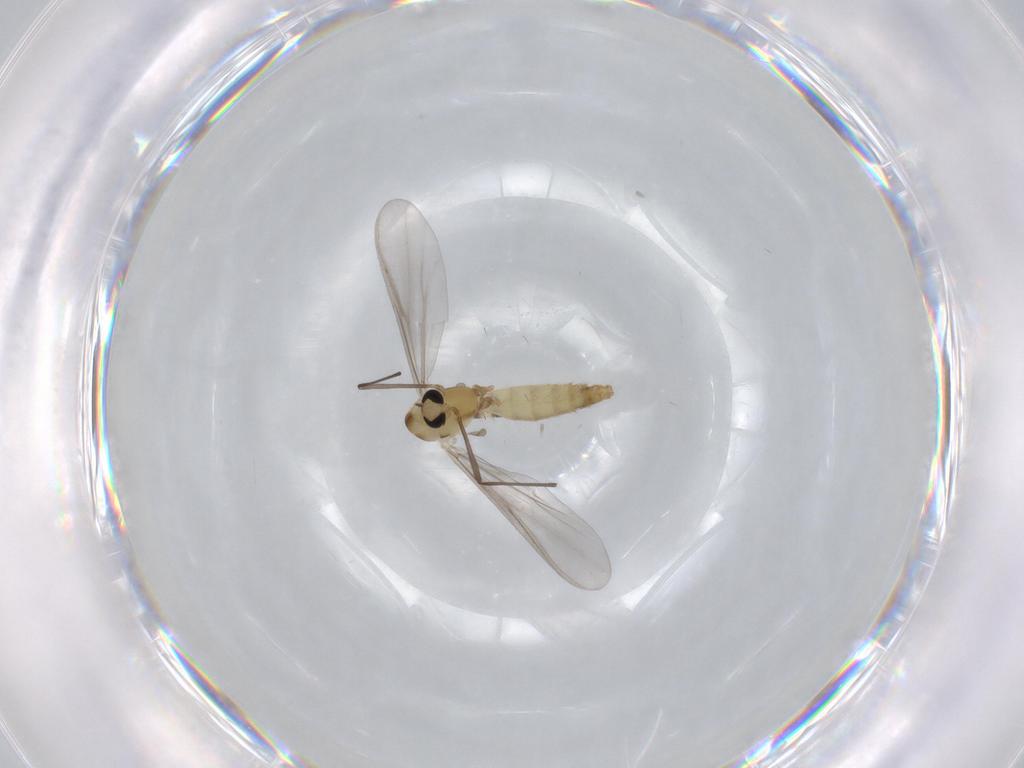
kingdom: Animalia
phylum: Arthropoda
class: Insecta
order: Diptera
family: Chironomidae
